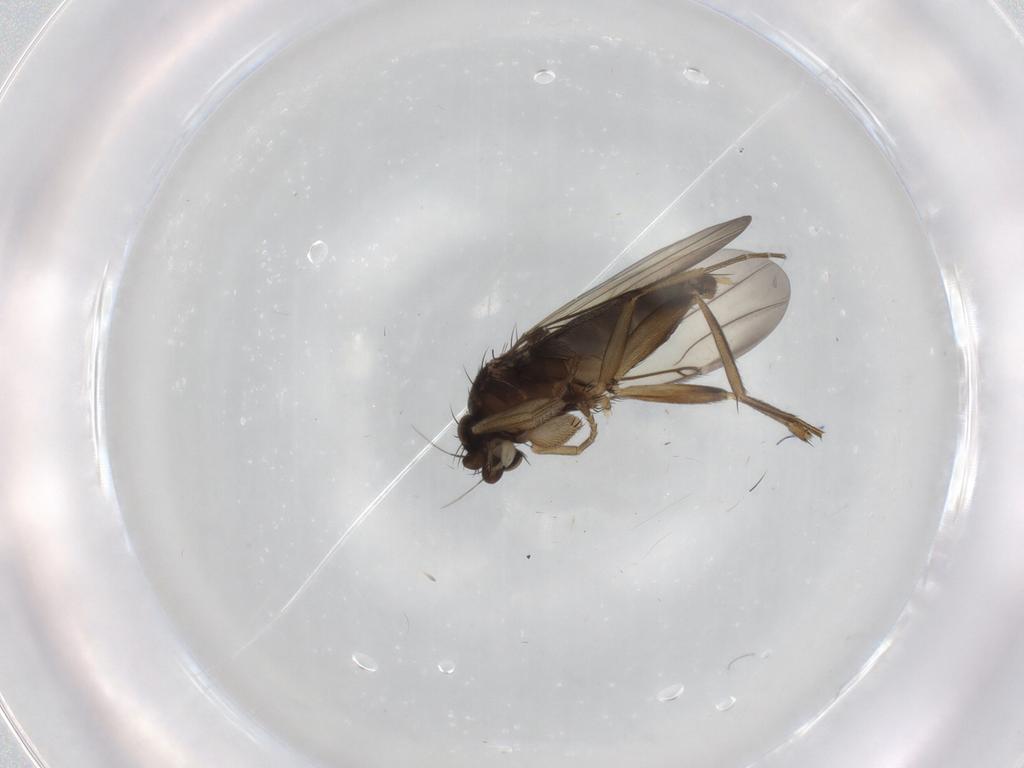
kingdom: Animalia
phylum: Arthropoda
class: Insecta
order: Diptera
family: Phoridae
